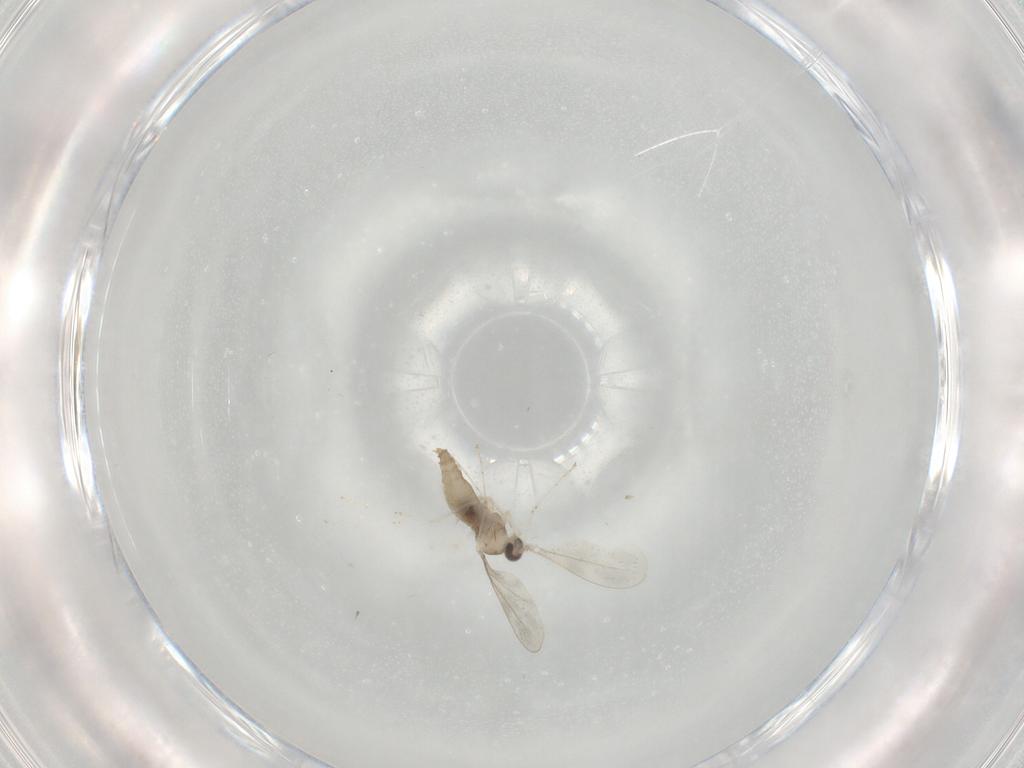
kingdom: Animalia
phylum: Arthropoda
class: Insecta
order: Diptera
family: Cecidomyiidae
